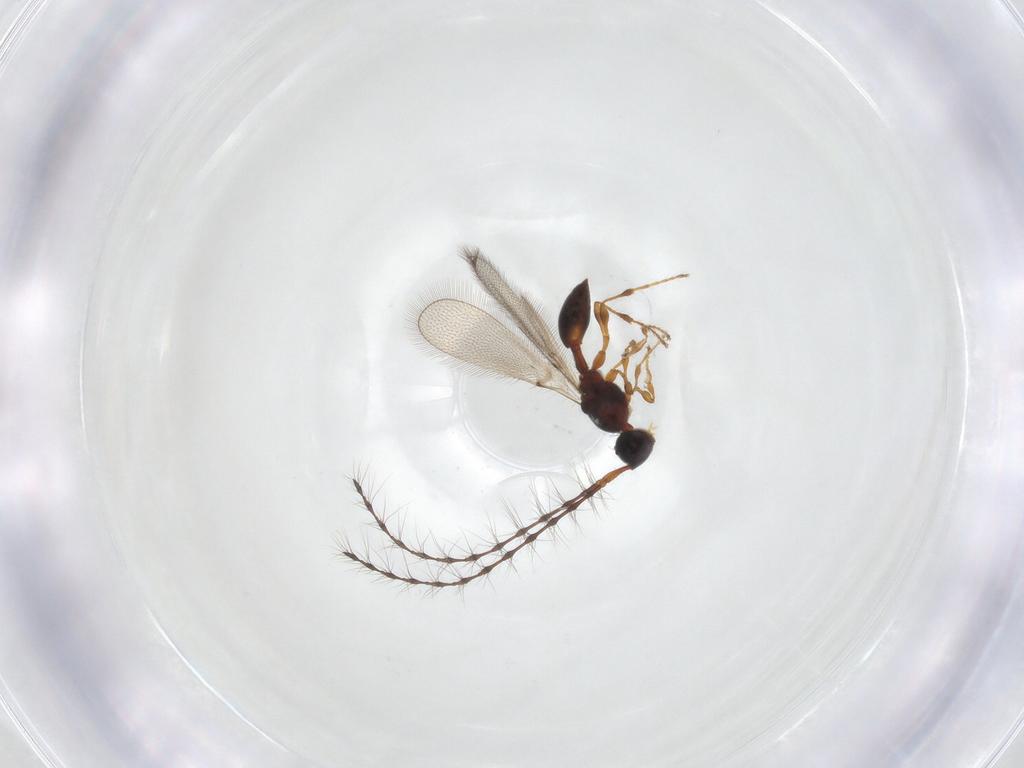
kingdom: Animalia
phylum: Arthropoda
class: Insecta
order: Hymenoptera
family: Diapriidae
